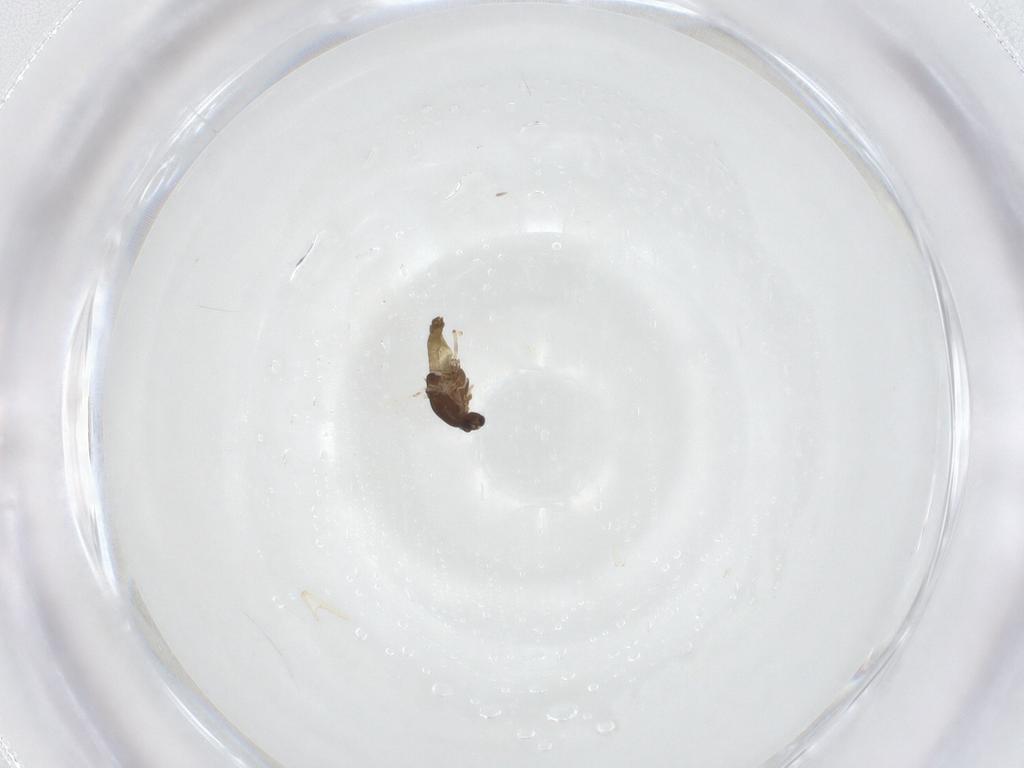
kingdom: Animalia
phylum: Arthropoda
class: Insecta
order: Diptera
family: Chironomidae
